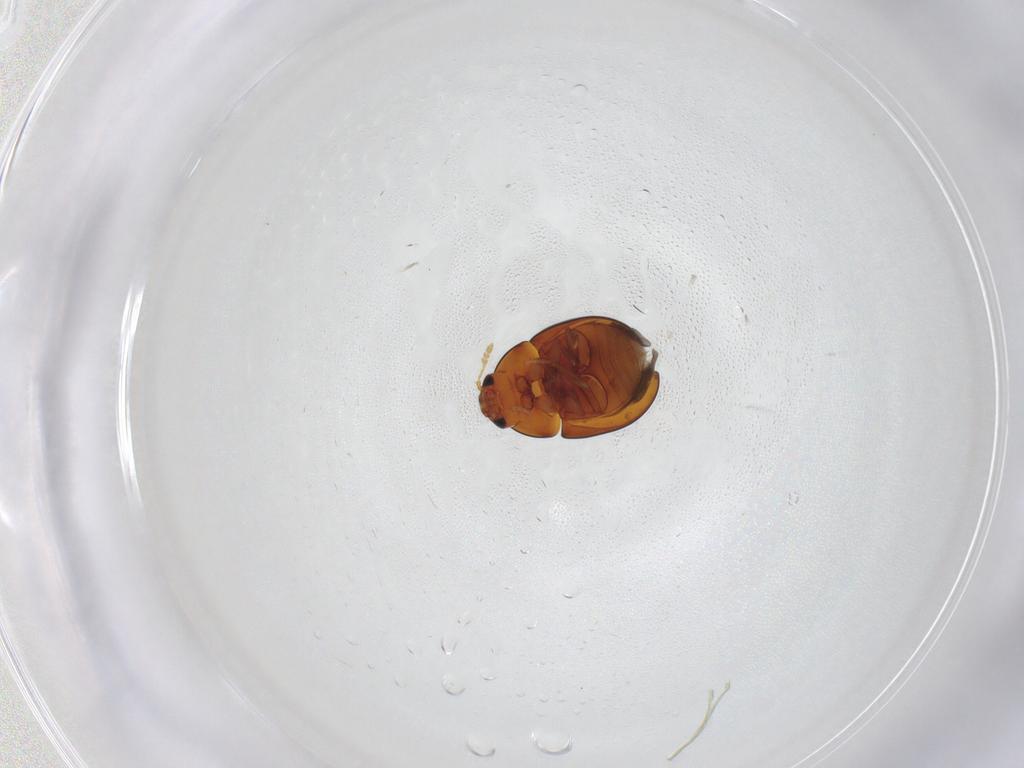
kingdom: Animalia
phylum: Arthropoda
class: Insecta
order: Coleoptera
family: Phalacridae
